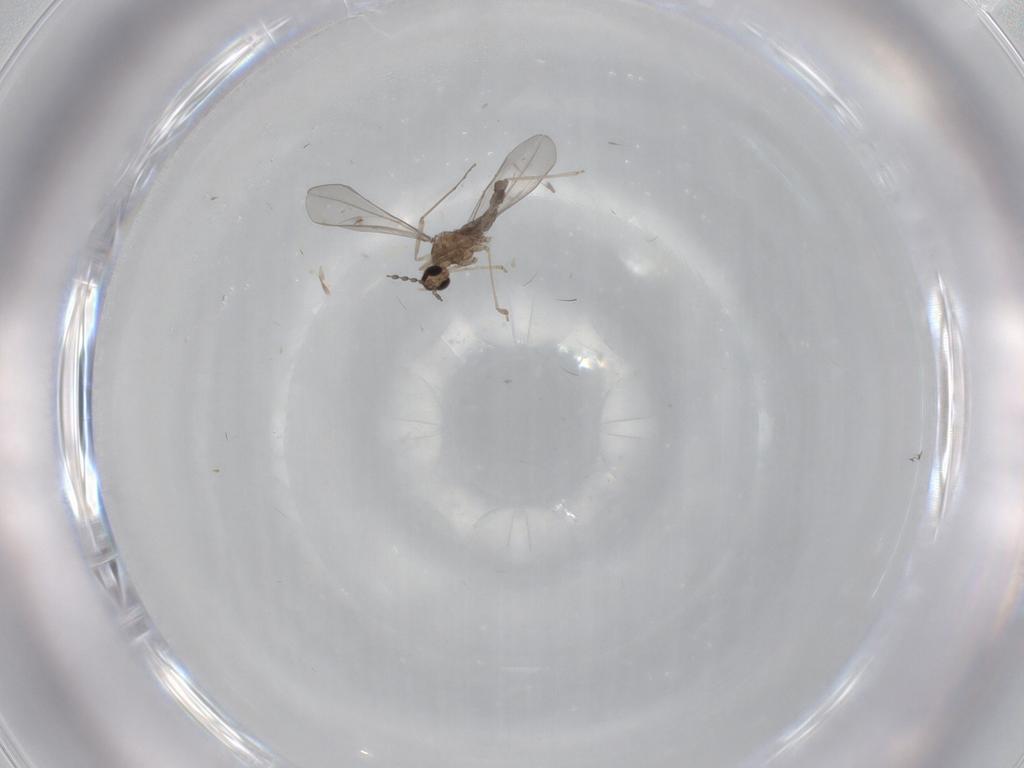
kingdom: Animalia
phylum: Arthropoda
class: Insecta
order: Diptera
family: Cecidomyiidae
